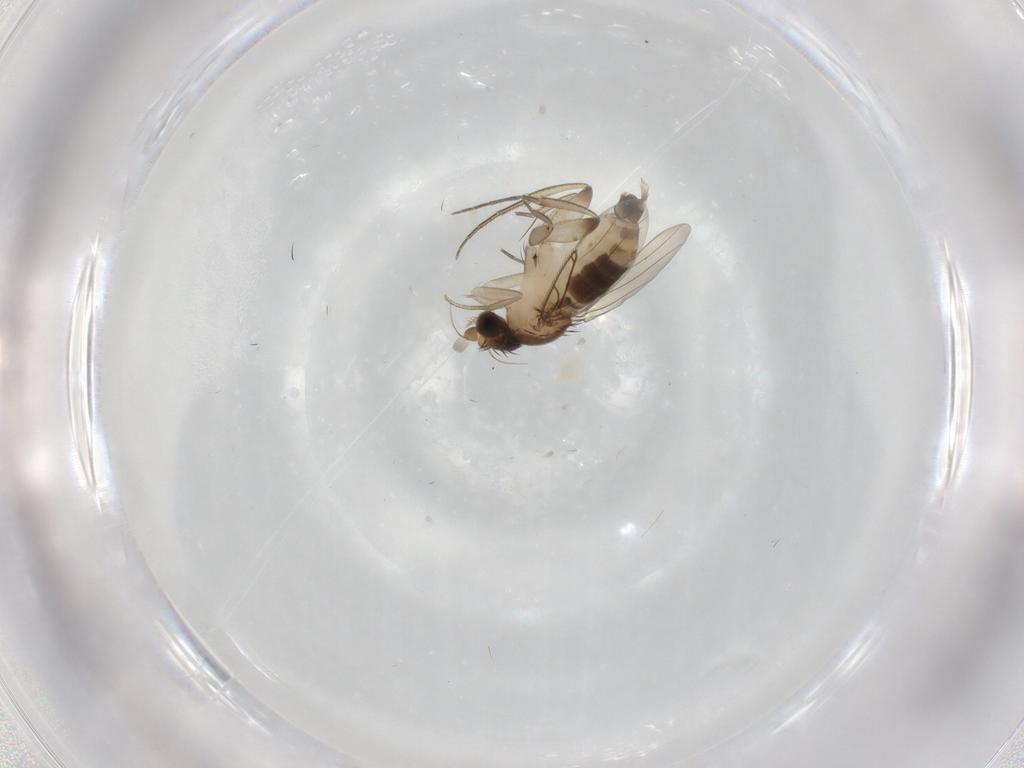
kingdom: Animalia
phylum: Arthropoda
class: Insecta
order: Diptera
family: Phoridae
